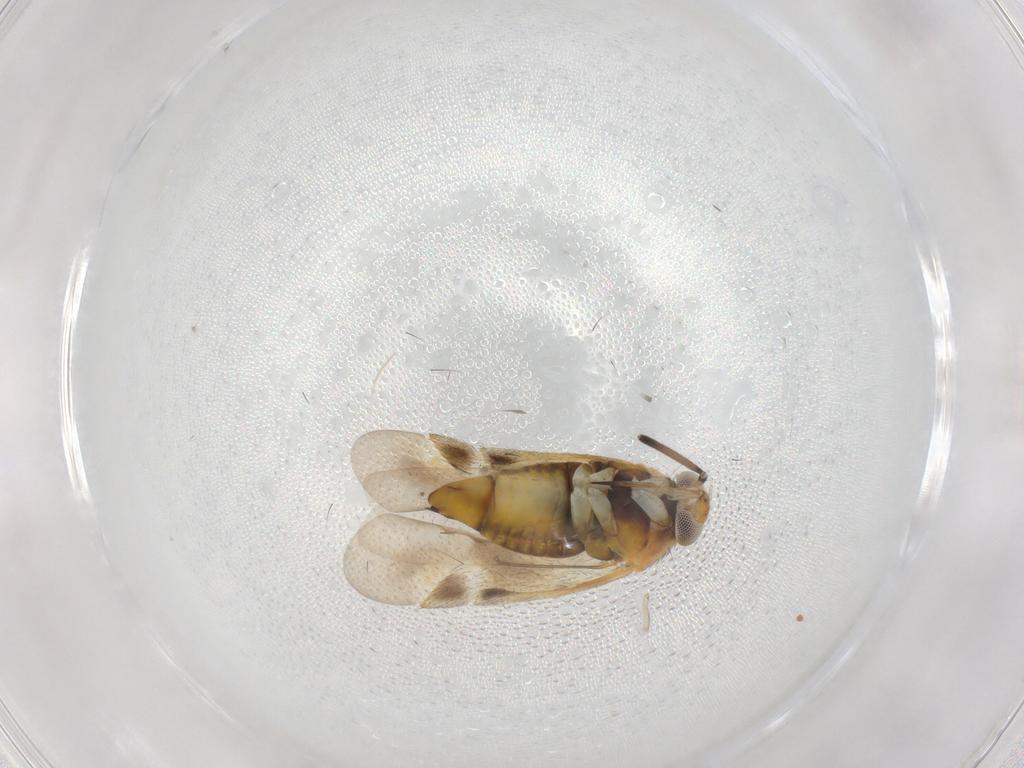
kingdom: Animalia
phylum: Arthropoda
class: Insecta
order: Hemiptera
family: Miridae
